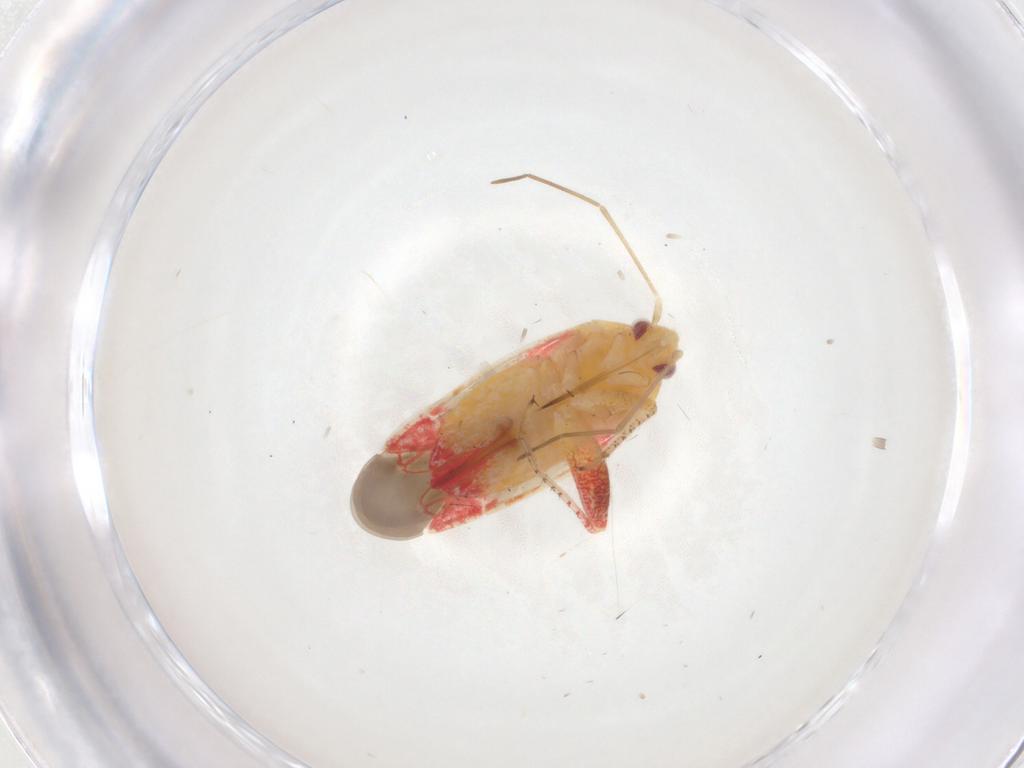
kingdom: Animalia
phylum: Arthropoda
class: Insecta
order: Hemiptera
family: Miridae
